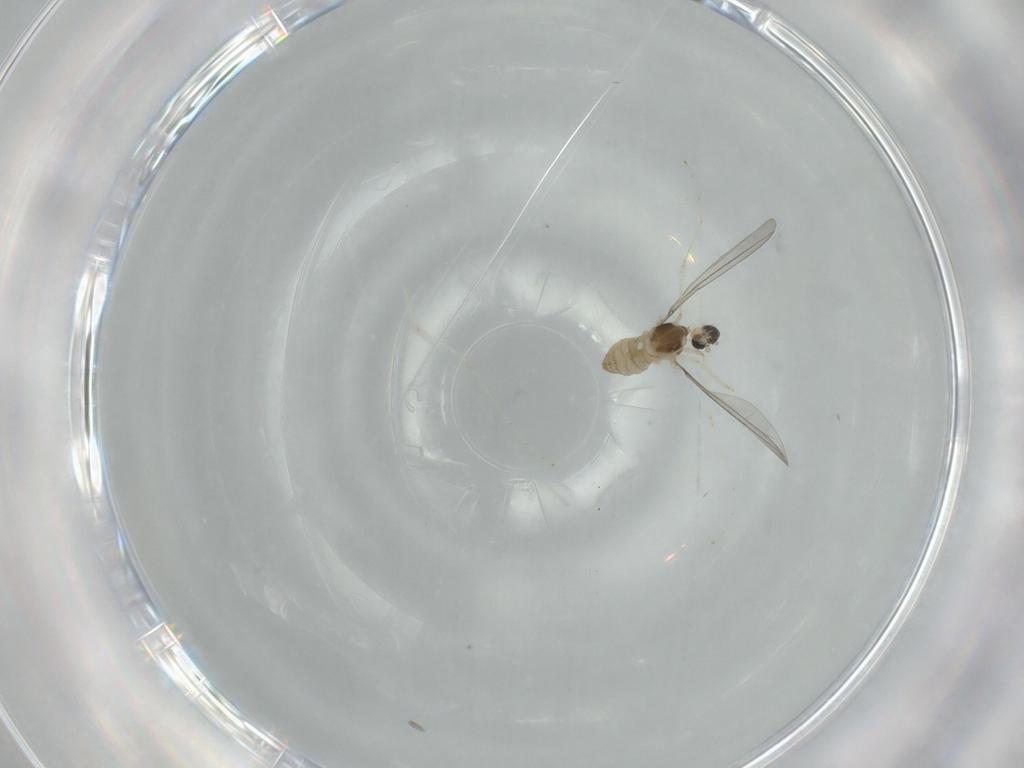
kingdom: Animalia
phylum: Arthropoda
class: Insecta
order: Diptera
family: Cecidomyiidae
